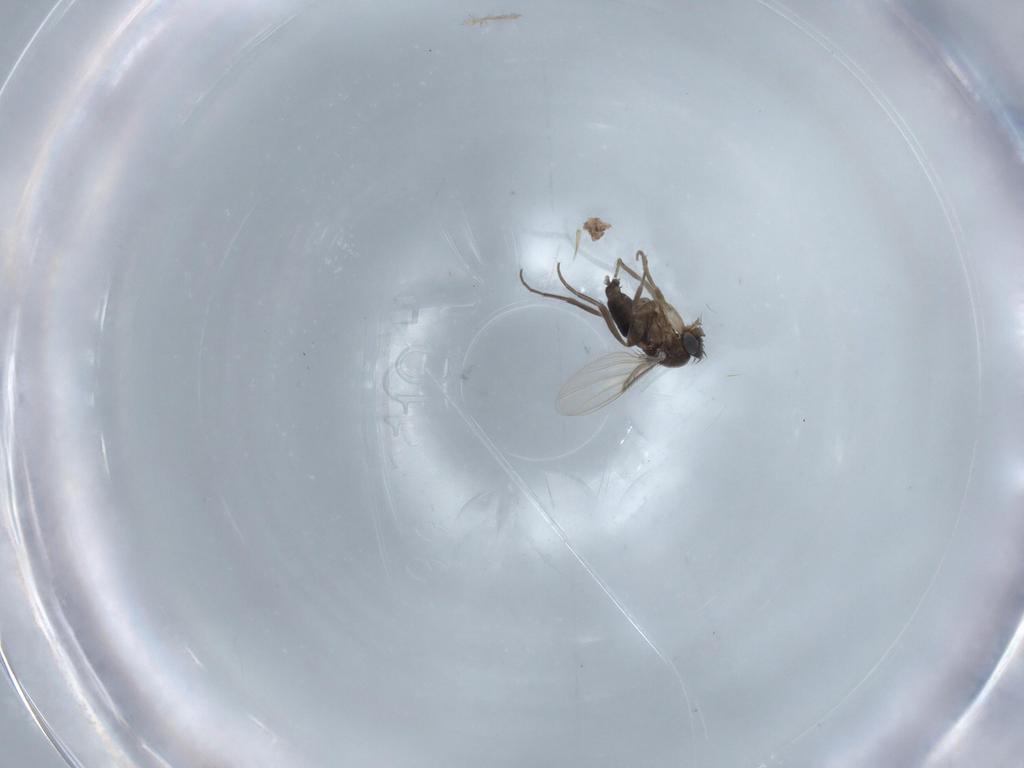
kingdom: Animalia
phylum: Arthropoda
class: Insecta
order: Diptera
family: Phoridae
